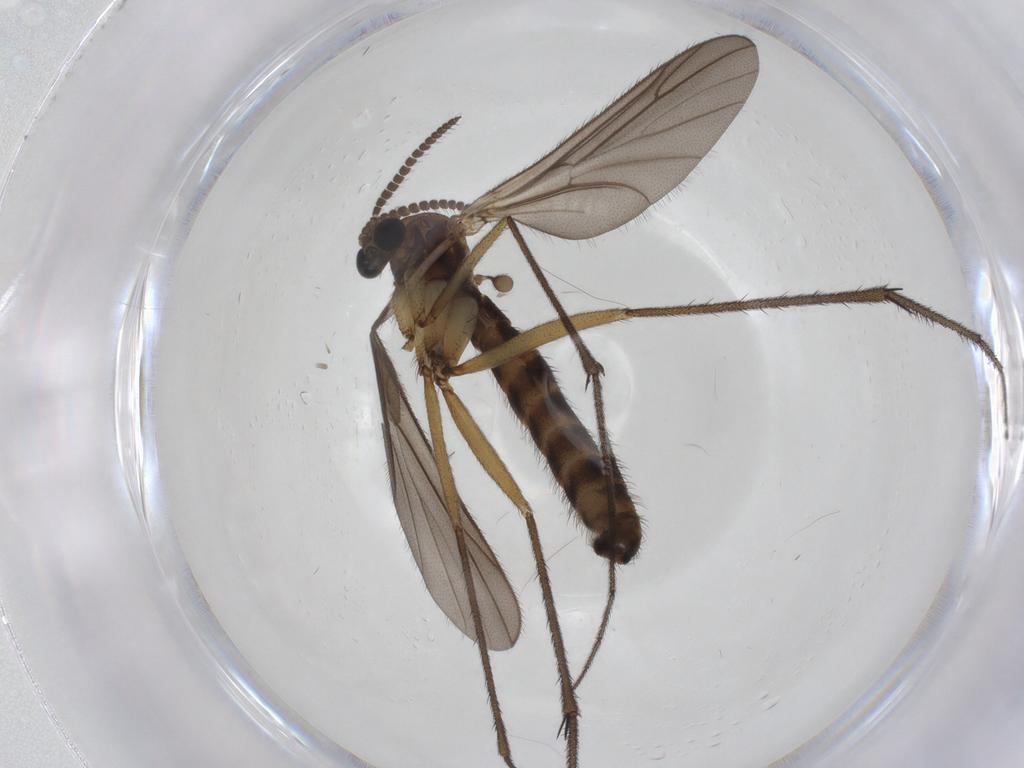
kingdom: Animalia
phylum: Arthropoda
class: Insecta
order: Diptera
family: Ditomyiidae
